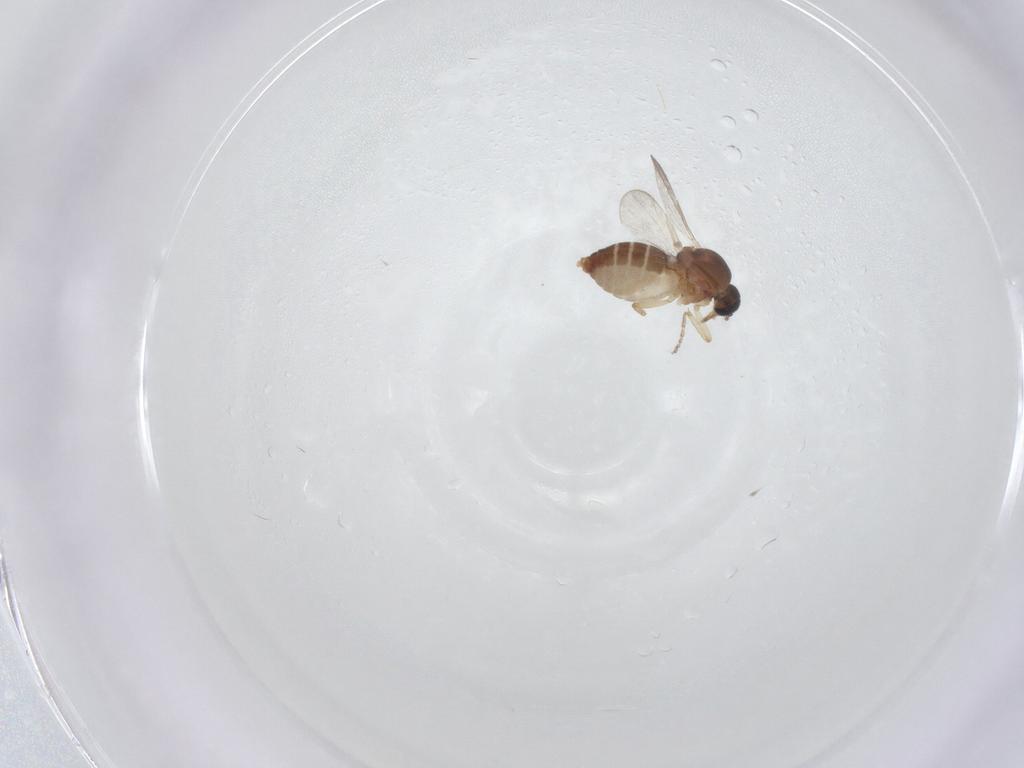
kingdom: Animalia
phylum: Arthropoda
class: Insecta
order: Diptera
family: Ceratopogonidae
